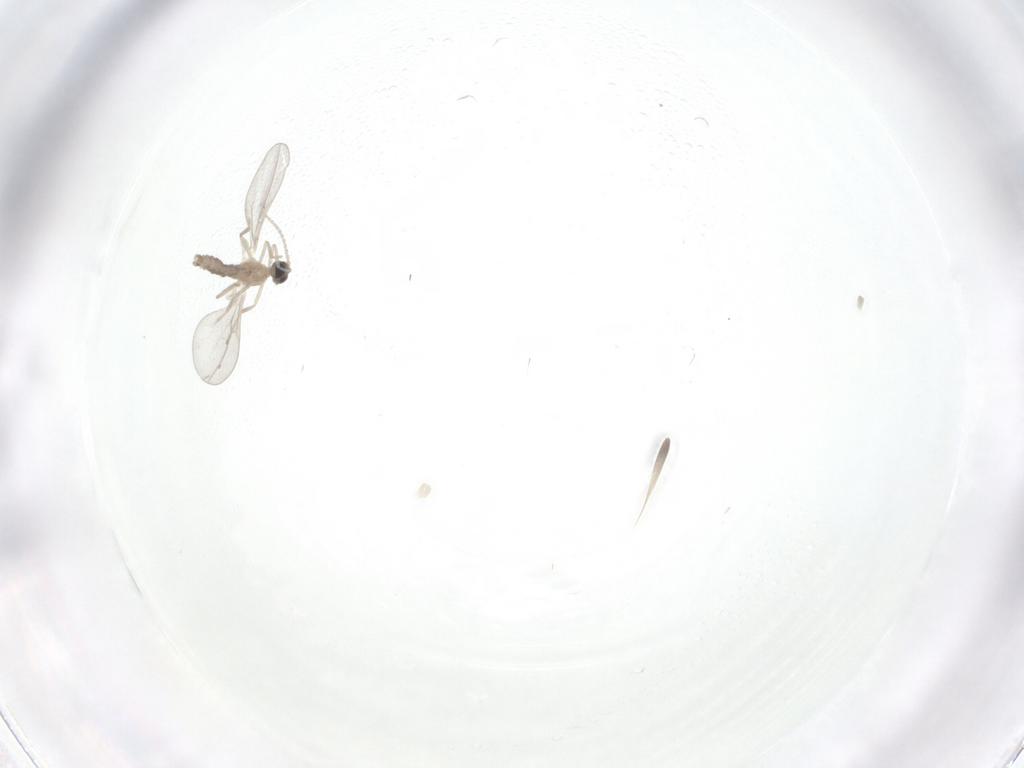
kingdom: Animalia
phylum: Arthropoda
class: Insecta
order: Diptera
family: Cecidomyiidae
